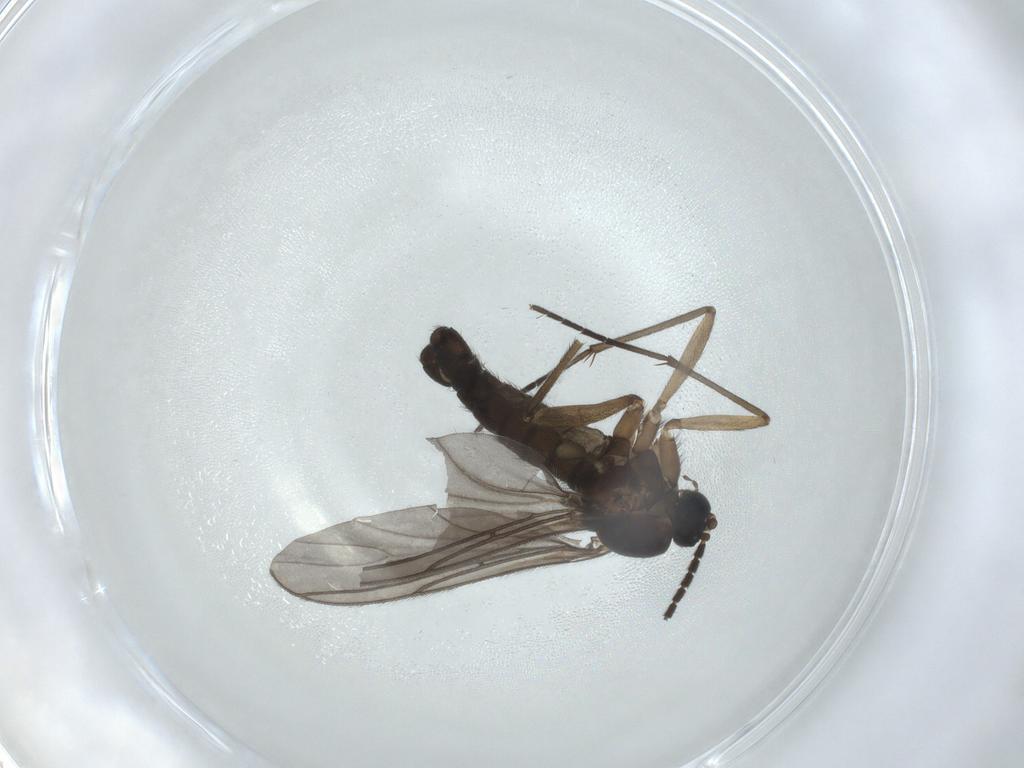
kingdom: Animalia
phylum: Arthropoda
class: Insecta
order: Diptera
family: Sciaridae
